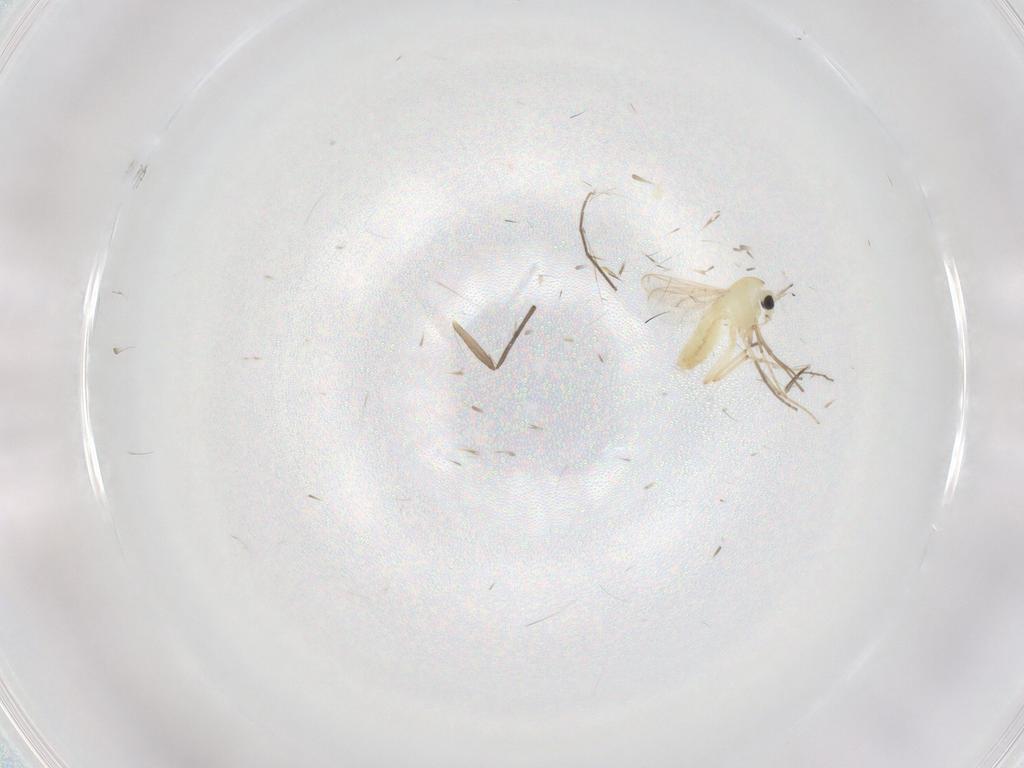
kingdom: Animalia
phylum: Arthropoda
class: Insecta
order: Diptera
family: Chironomidae
